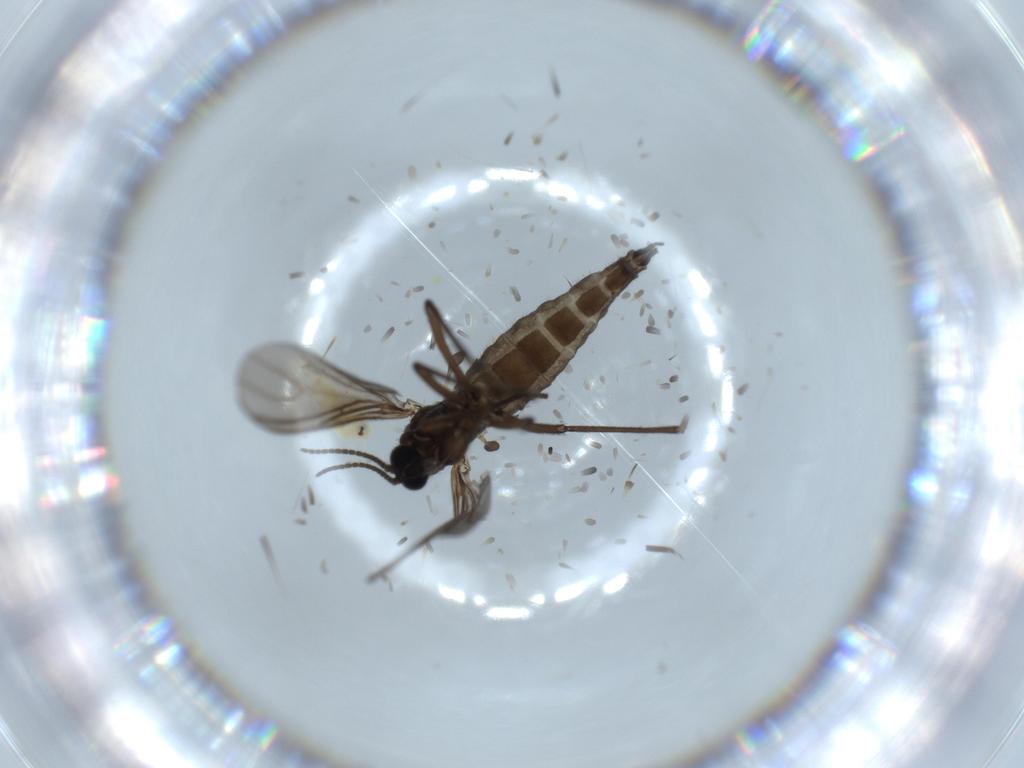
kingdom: Animalia
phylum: Arthropoda
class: Insecta
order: Diptera
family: Sciaridae
